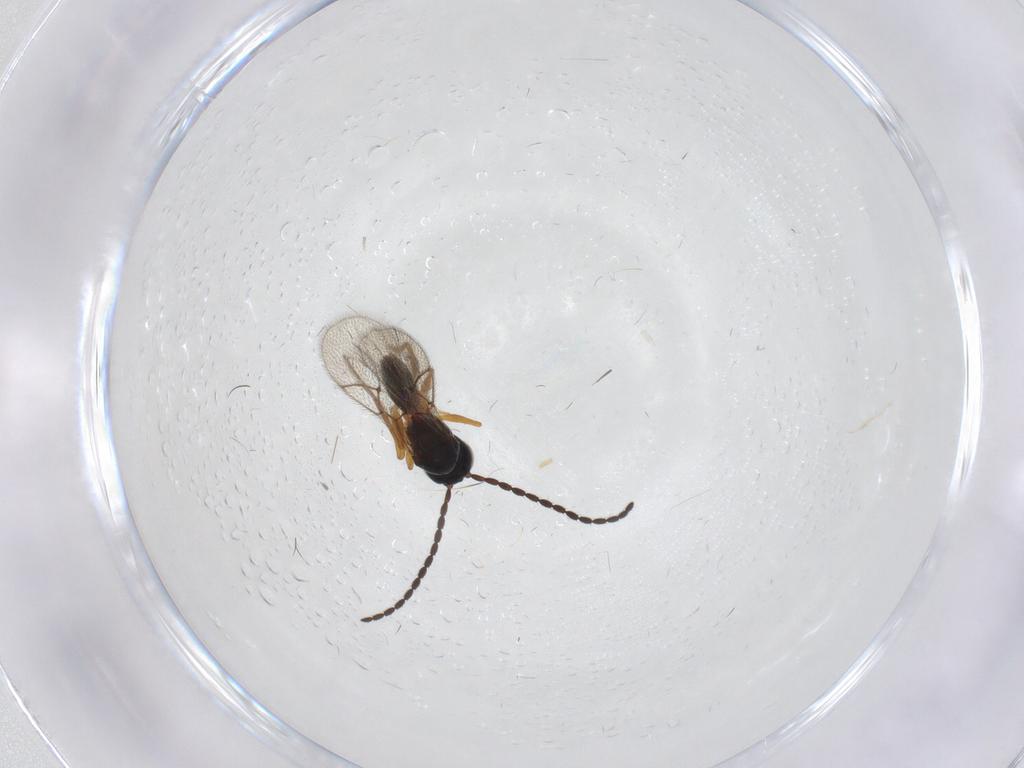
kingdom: Animalia
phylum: Arthropoda
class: Insecta
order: Hymenoptera
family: Figitidae
